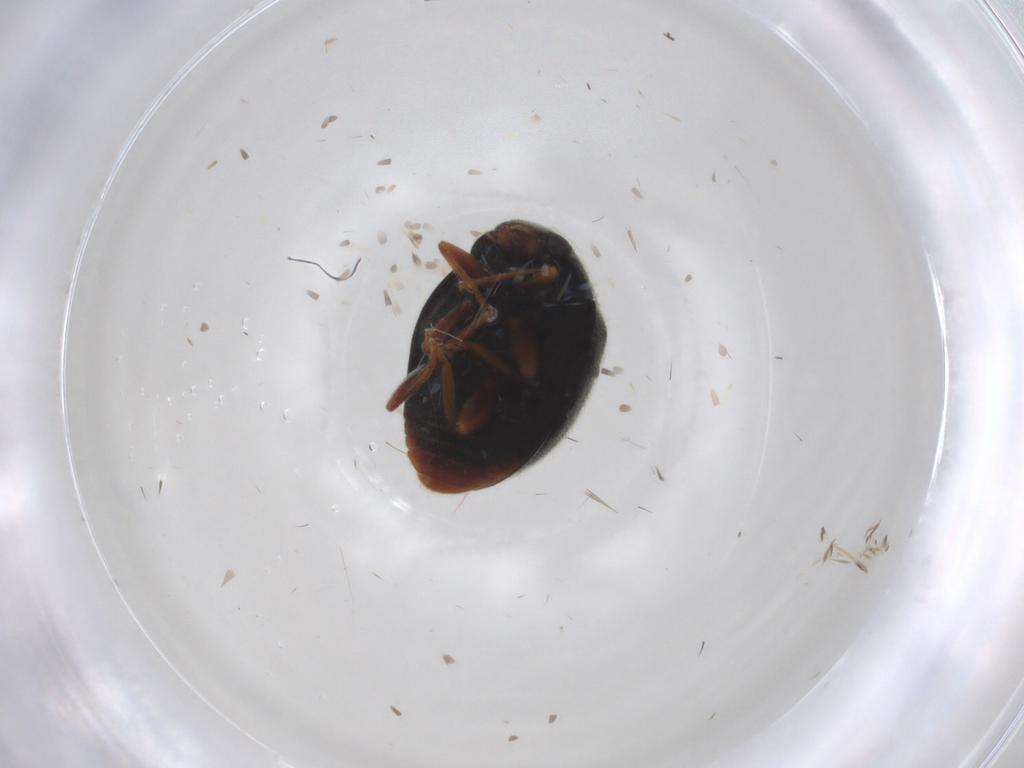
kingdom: Animalia
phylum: Arthropoda
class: Insecta
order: Coleoptera
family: Coccinellidae
